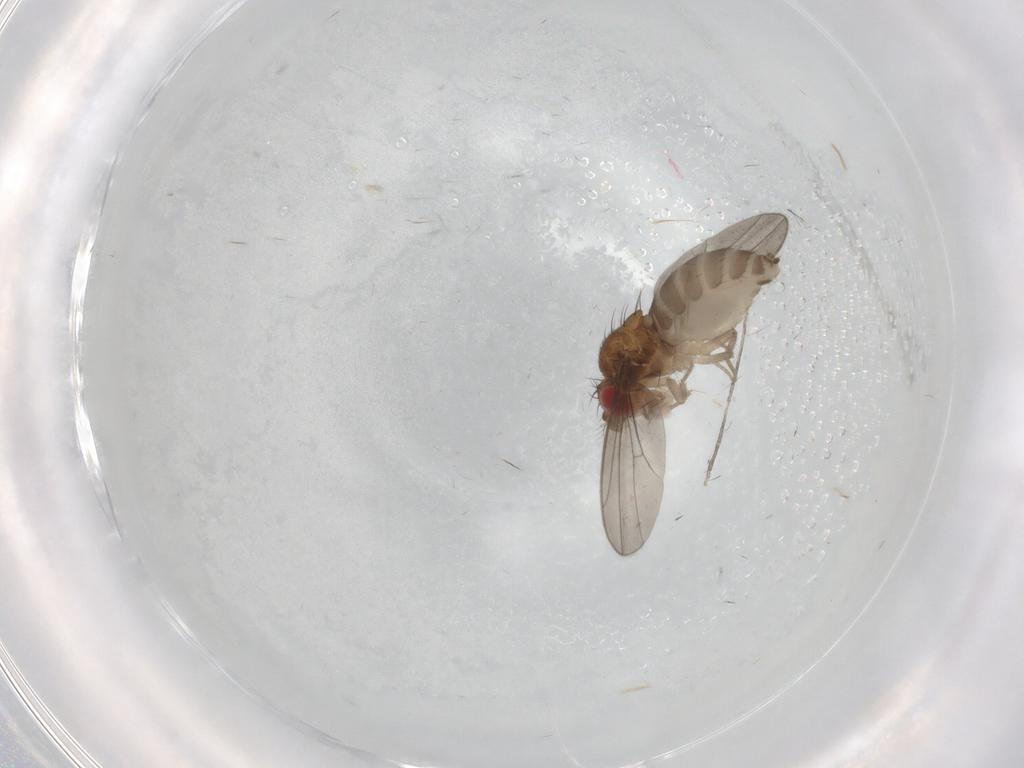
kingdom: Animalia
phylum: Arthropoda
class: Insecta
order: Diptera
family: Drosophilidae
